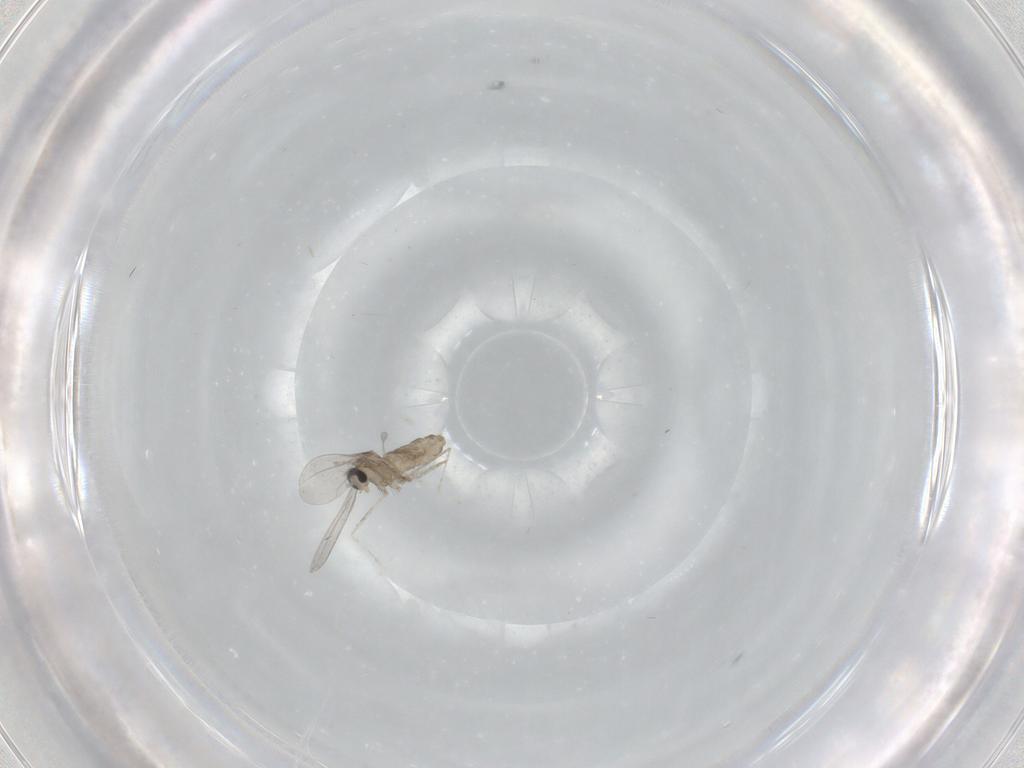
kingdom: Animalia
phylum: Arthropoda
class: Insecta
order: Diptera
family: Cecidomyiidae
